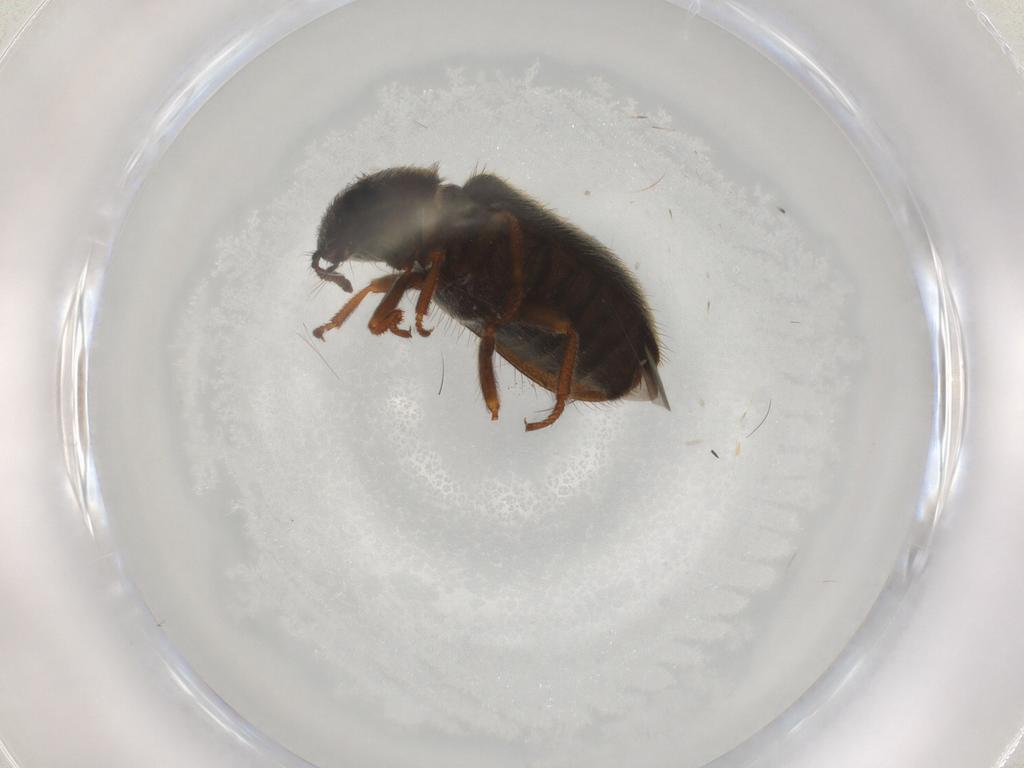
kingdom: Animalia
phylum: Arthropoda
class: Insecta
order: Coleoptera
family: Melyridae
